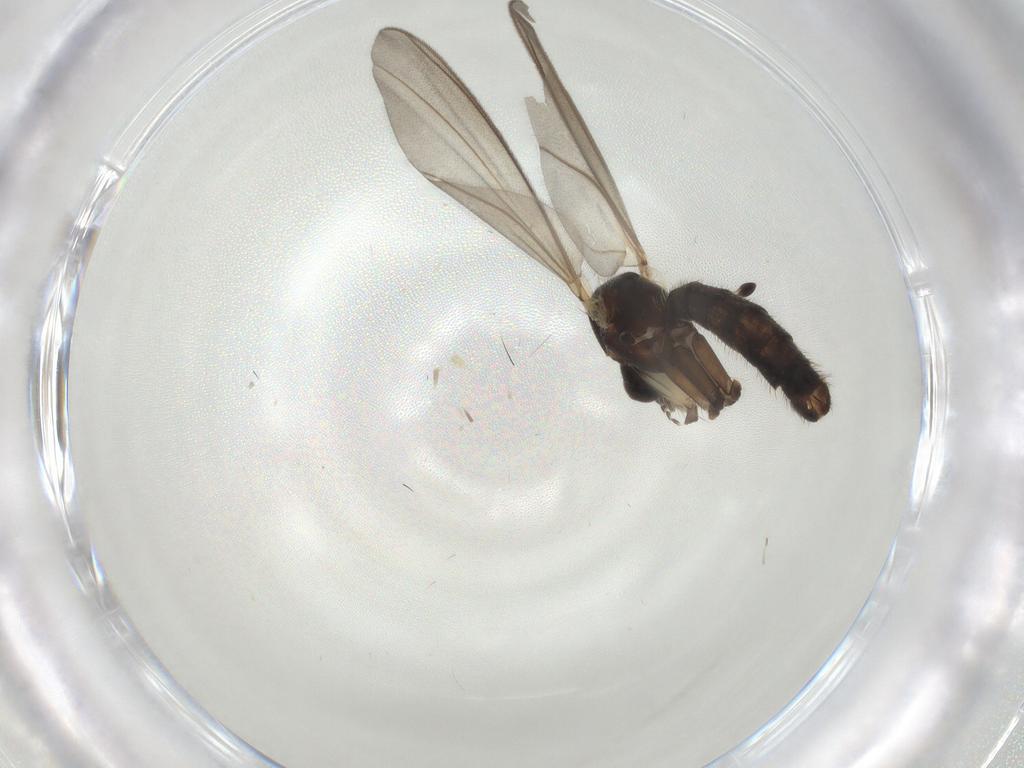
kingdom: Animalia
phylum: Arthropoda
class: Insecta
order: Diptera
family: Mycetophilidae
